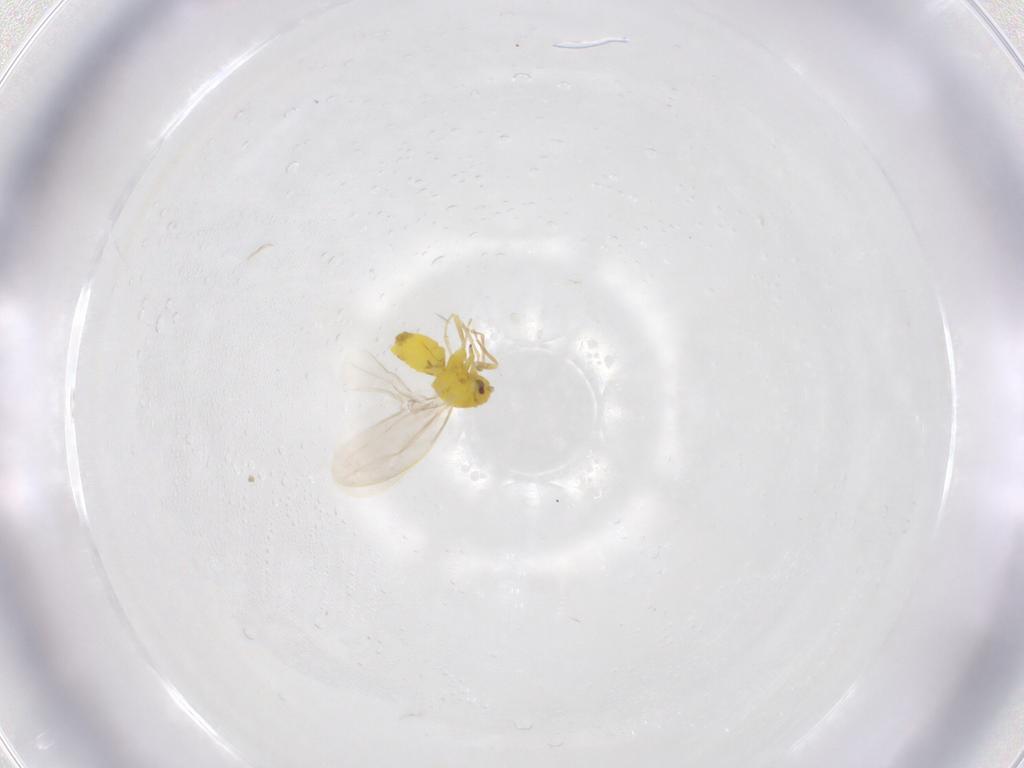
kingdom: Animalia
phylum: Arthropoda
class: Insecta
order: Hemiptera
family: Aleyrodidae
